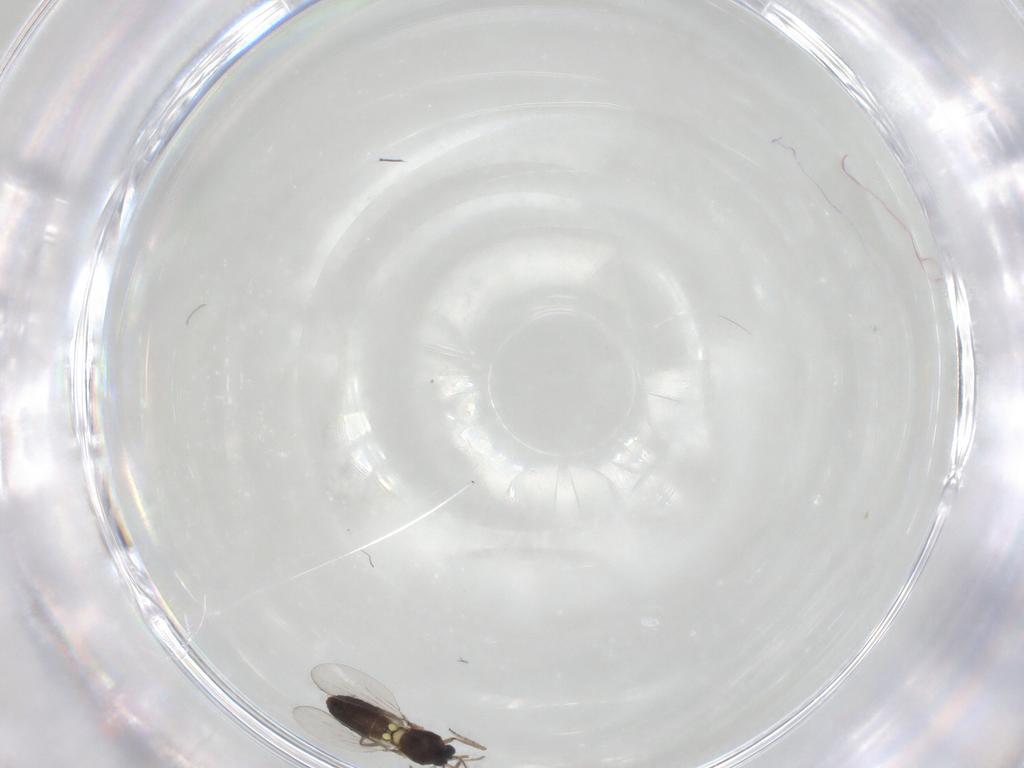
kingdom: Animalia
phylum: Arthropoda
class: Insecta
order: Diptera
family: Ceratopogonidae
